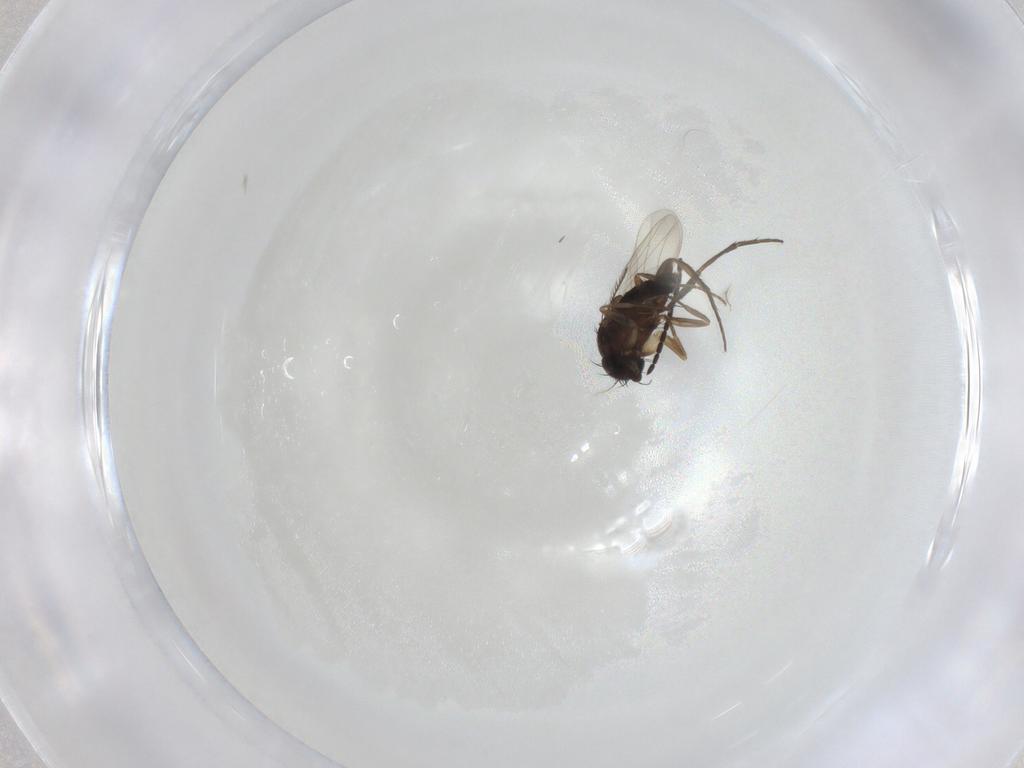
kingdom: Animalia
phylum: Arthropoda
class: Insecta
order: Diptera
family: Phoridae
